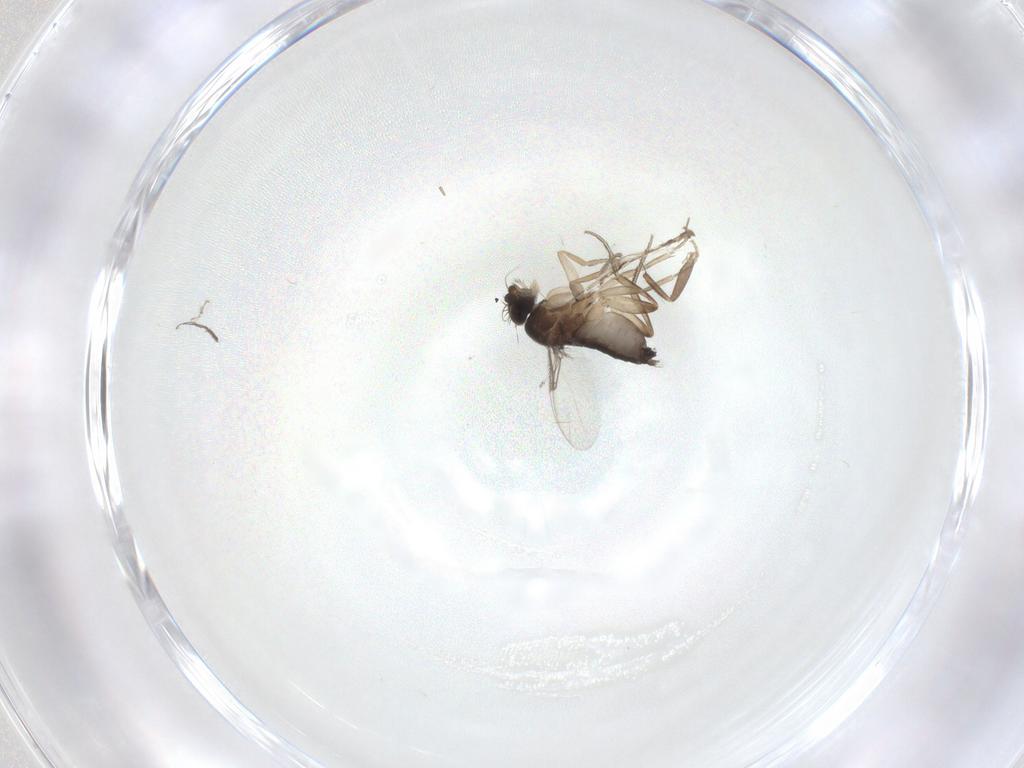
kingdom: Animalia
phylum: Arthropoda
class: Insecta
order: Diptera
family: Phoridae
